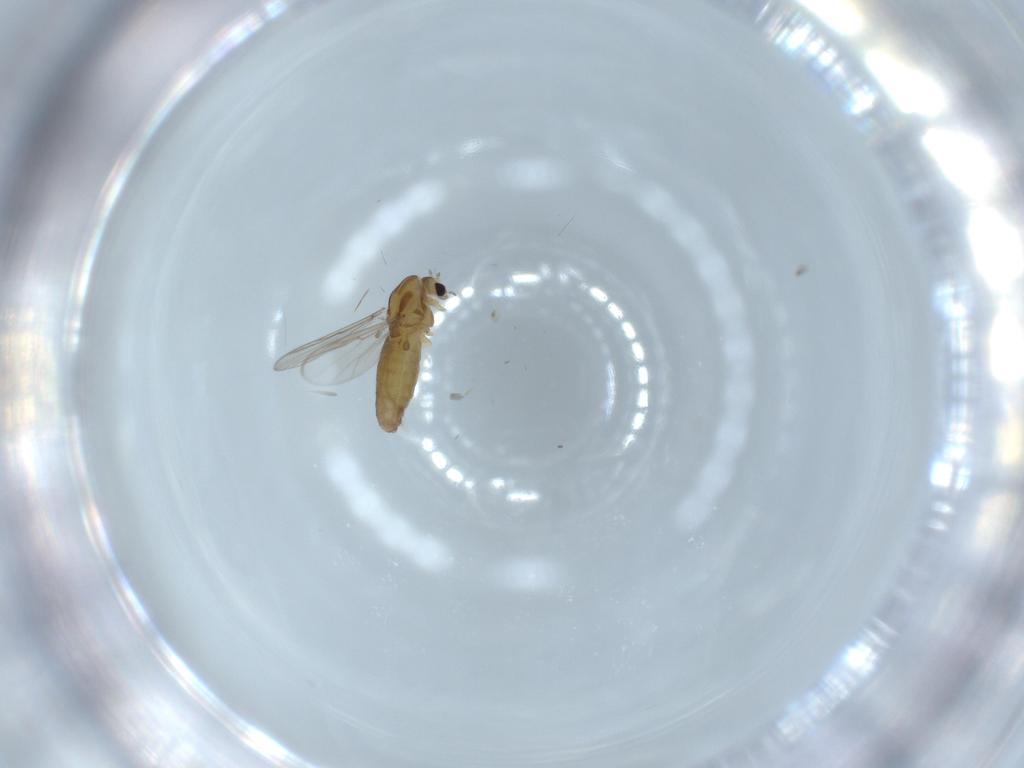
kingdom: Animalia
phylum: Arthropoda
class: Insecta
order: Diptera
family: Chironomidae
